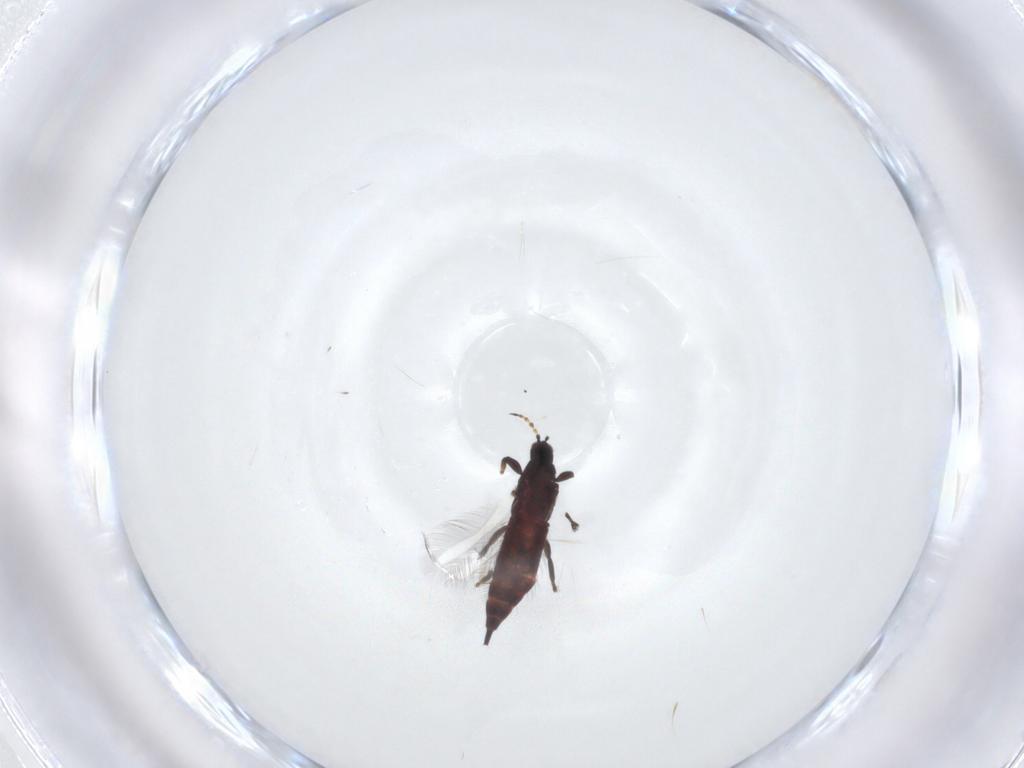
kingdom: Animalia
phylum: Arthropoda
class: Insecta
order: Thysanoptera
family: Phlaeothripidae
